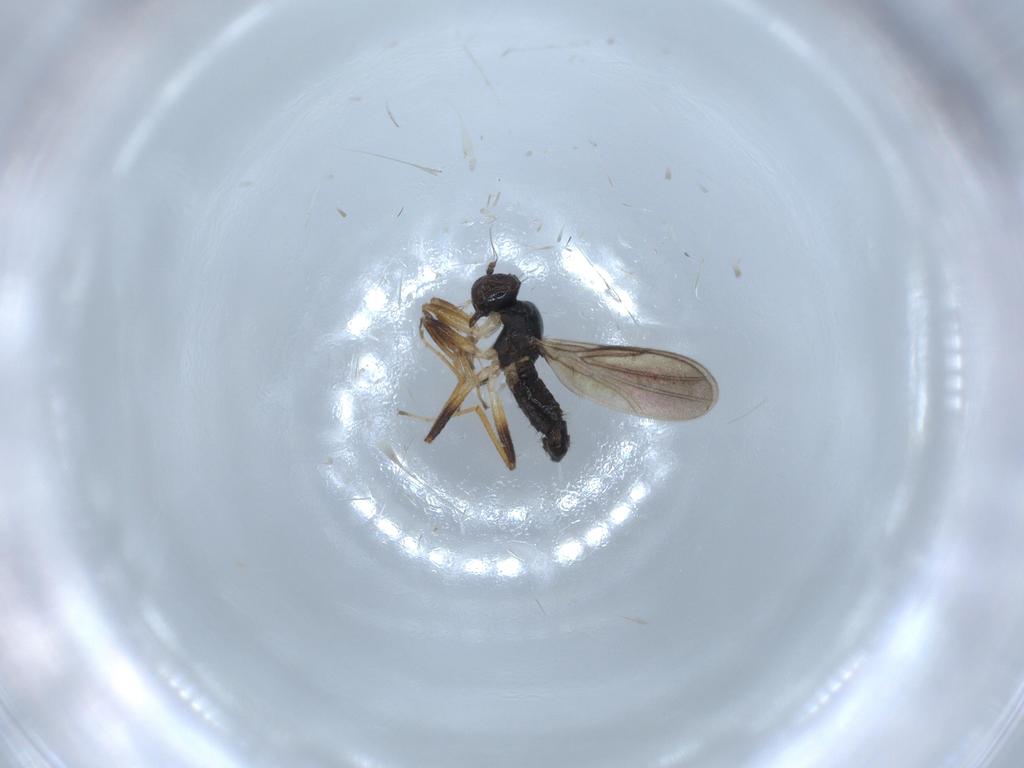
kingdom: Animalia
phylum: Arthropoda
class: Insecta
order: Diptera
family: Hybotidae
